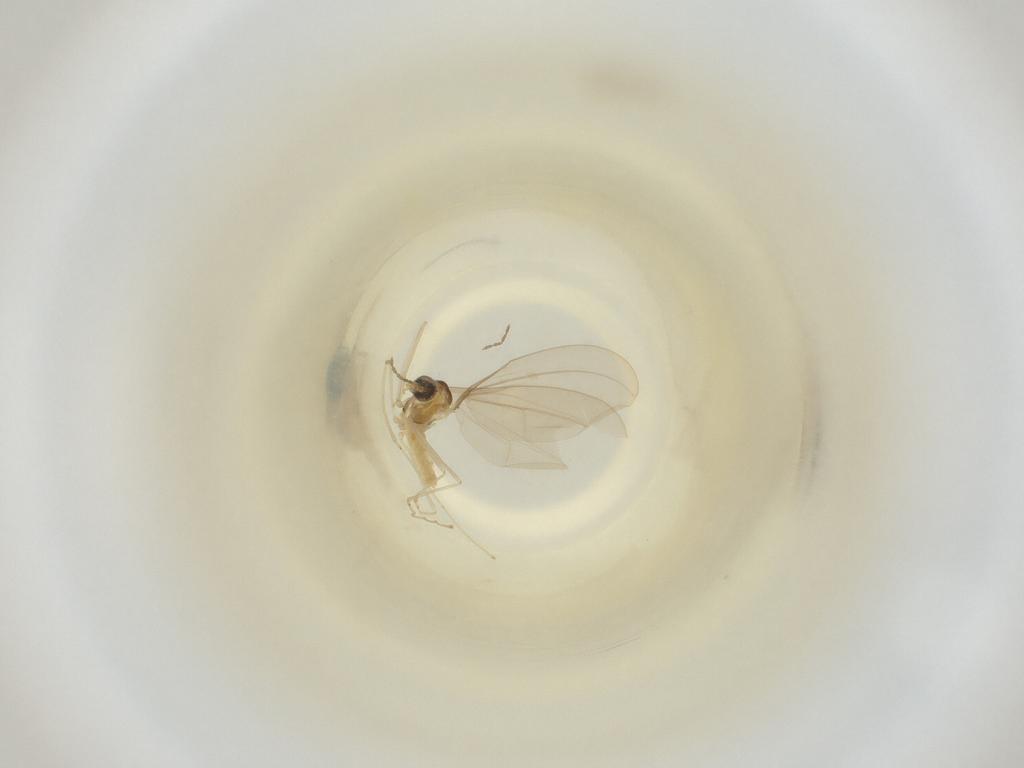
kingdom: Animalia
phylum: Arthropoda
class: Insecta
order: Diptera
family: Cecidomyiidae
